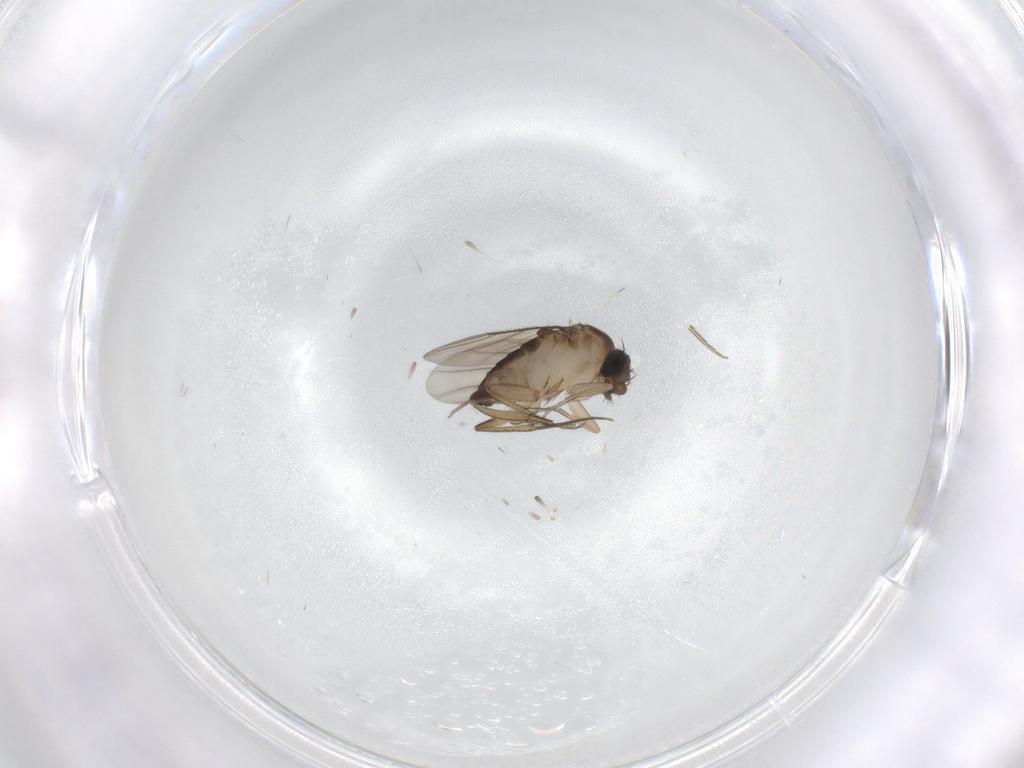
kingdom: Animalia
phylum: Arthropoda
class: Insecta
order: Diptera
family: Phoridae
